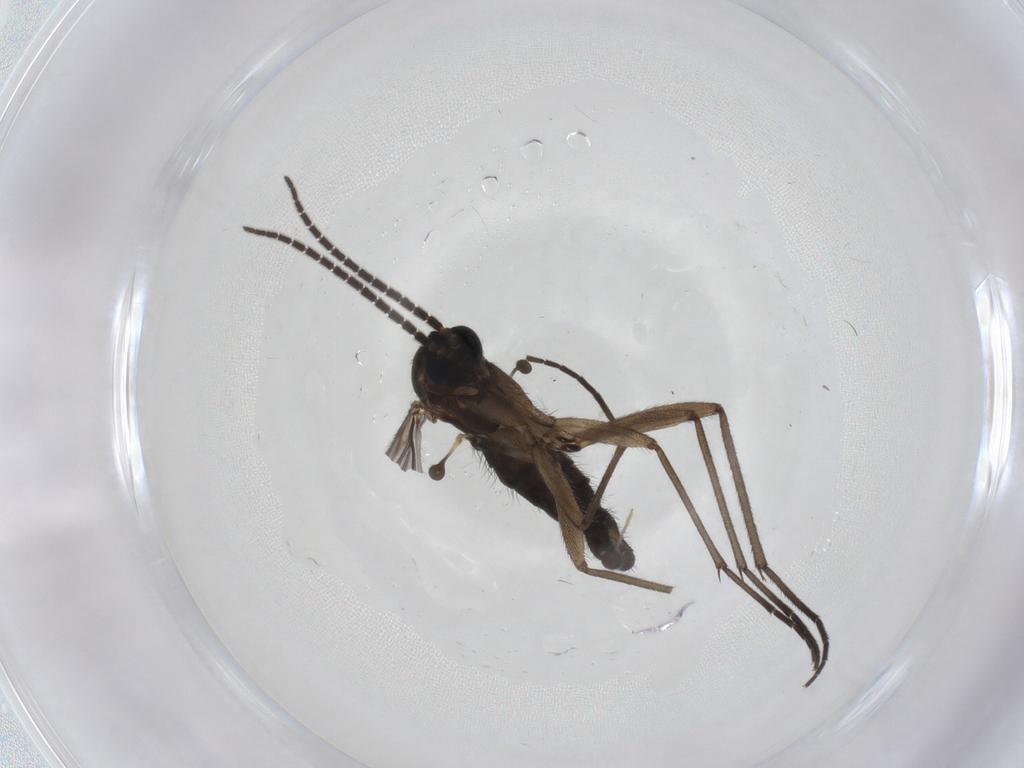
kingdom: Animalia
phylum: Arthropoda
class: Insecta
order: Diptera
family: Sciaridae
